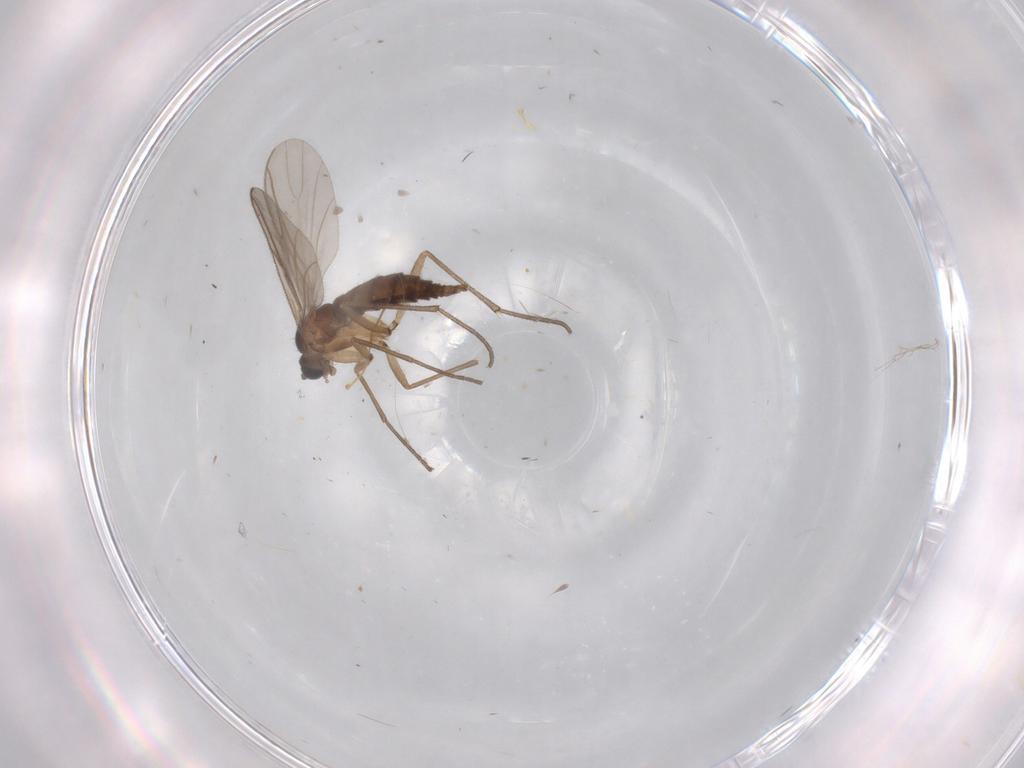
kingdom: Animalia
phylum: Arthropoda
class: Insecta
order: Diptera
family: Sciaridae
